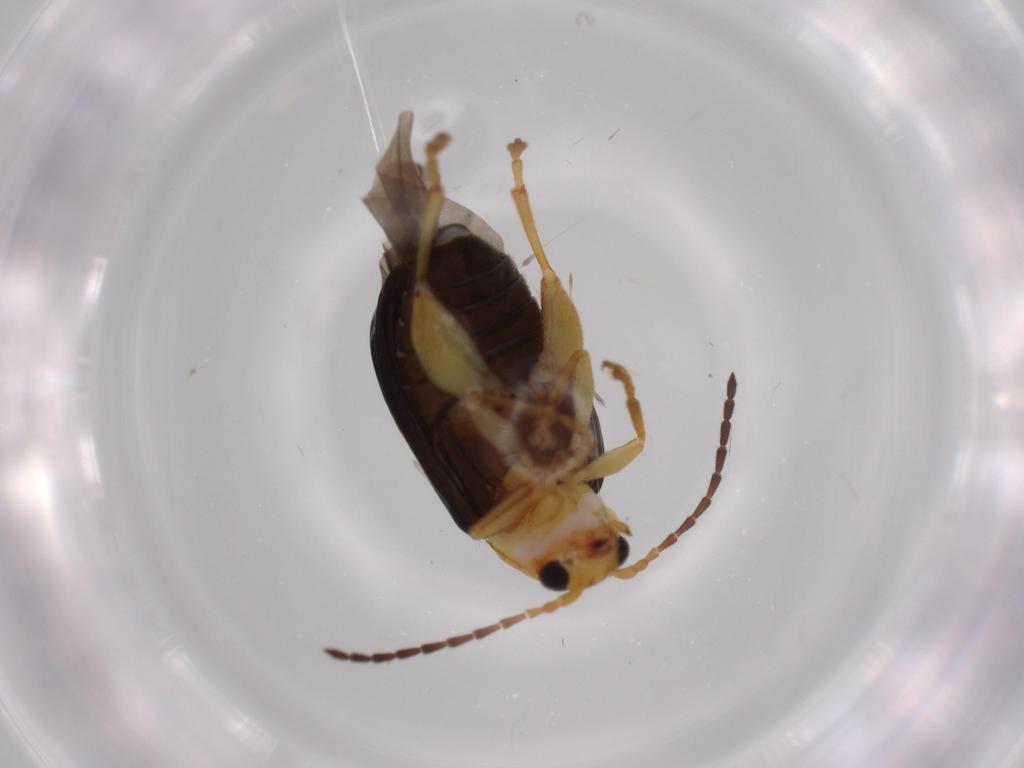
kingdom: Animalia
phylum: Arthropoda
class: Insecta
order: Coleoptera
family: Chrysomelidae
